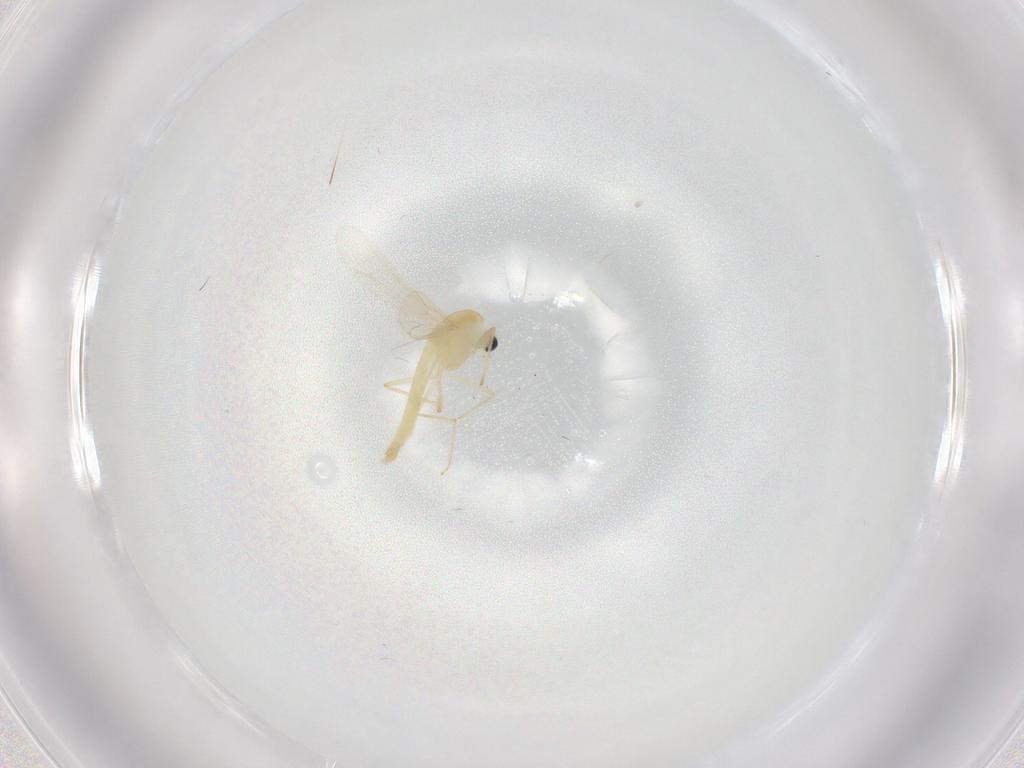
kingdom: Animalia
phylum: Arthropoda
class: Insecta
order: Diptera
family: Chironomidae
